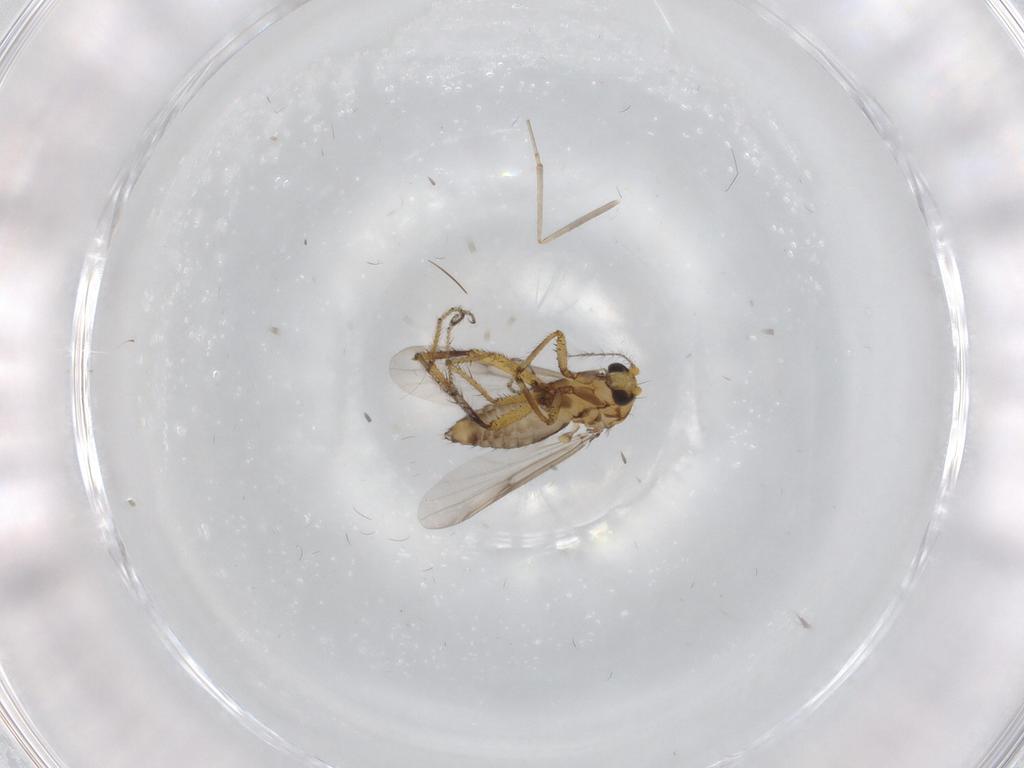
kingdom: Animalia
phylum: Arthropoda
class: Insecta
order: Diptera
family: Ceratopogonidae
